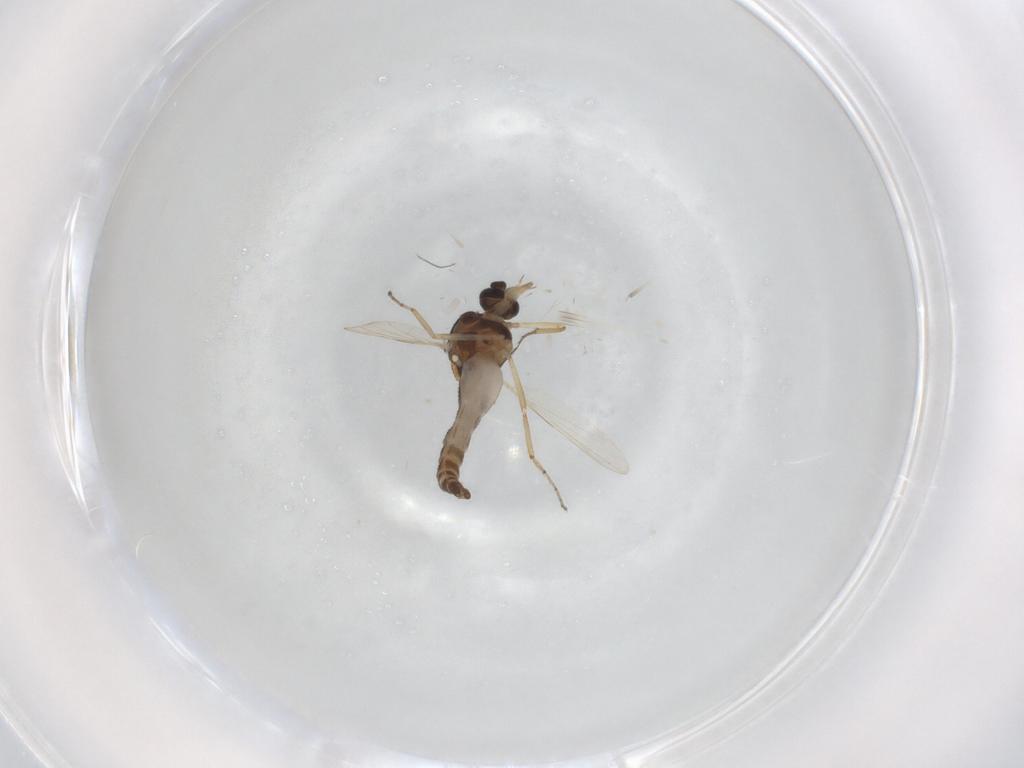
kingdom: Animalia
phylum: Arthropoda
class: Insecta
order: Diptera
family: Ceratopogonidae
